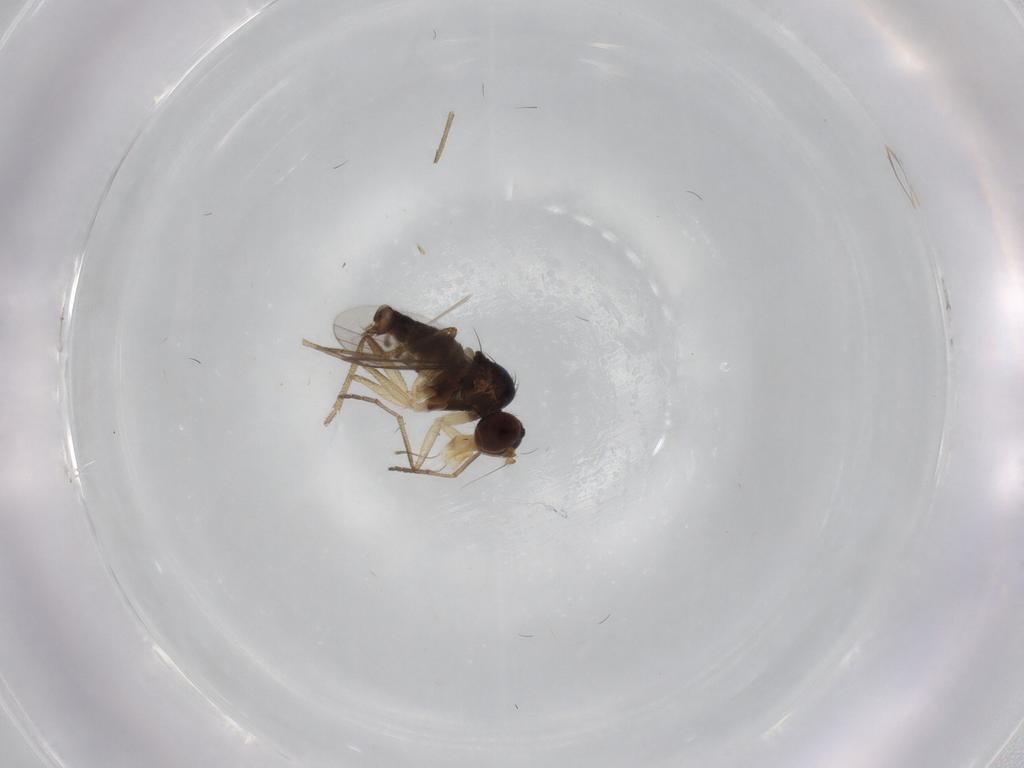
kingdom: Animalia
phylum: Arthropoda
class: Insecta
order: Diptera
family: Dolichopodidae
